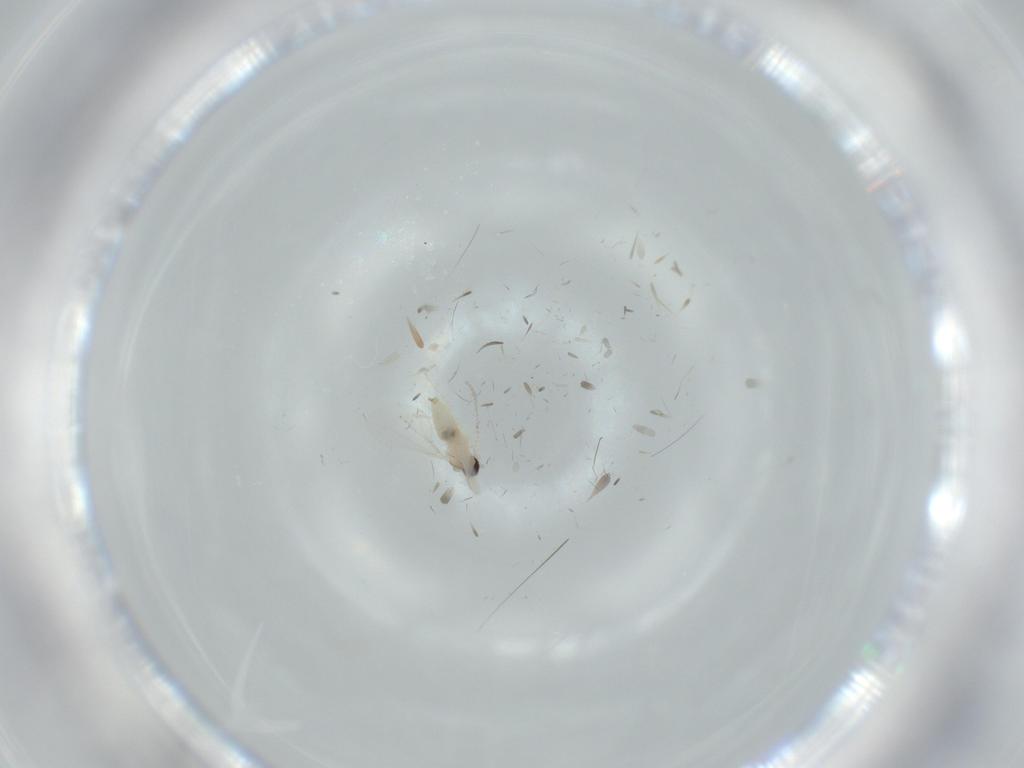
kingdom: Animalia
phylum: Arthropoda
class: Insecta
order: Diptera
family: Cecidomyiidae
